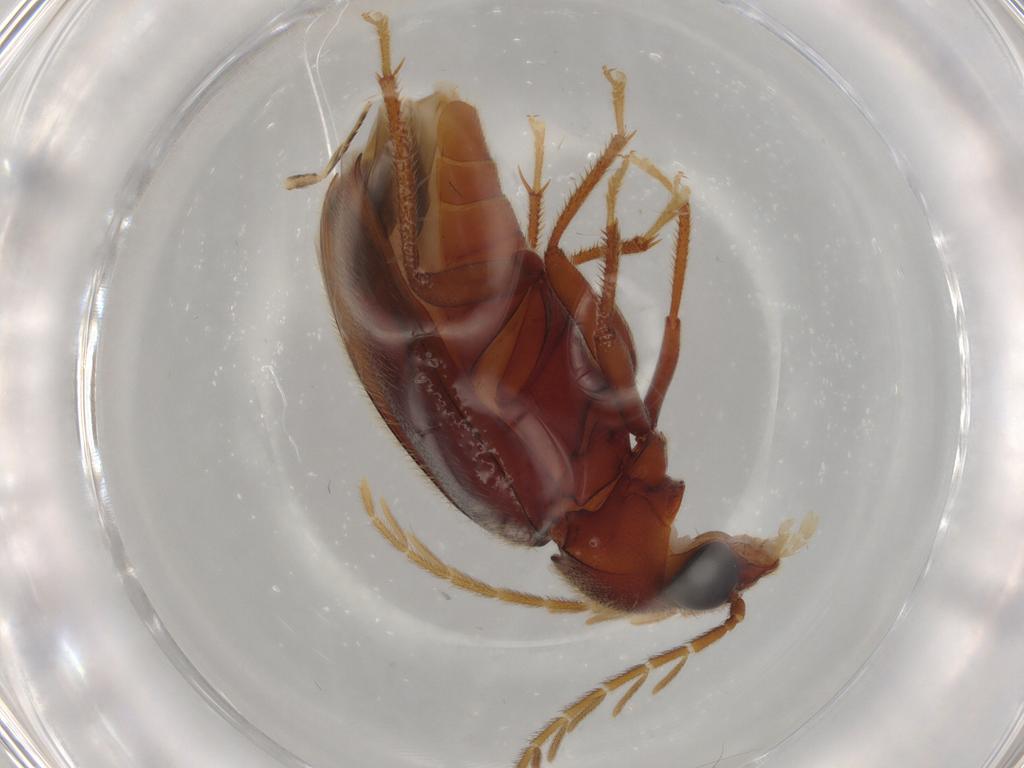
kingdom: Animalia
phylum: Arthropoda
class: Insecta
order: Coleoptera
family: Ptilodactylidae
